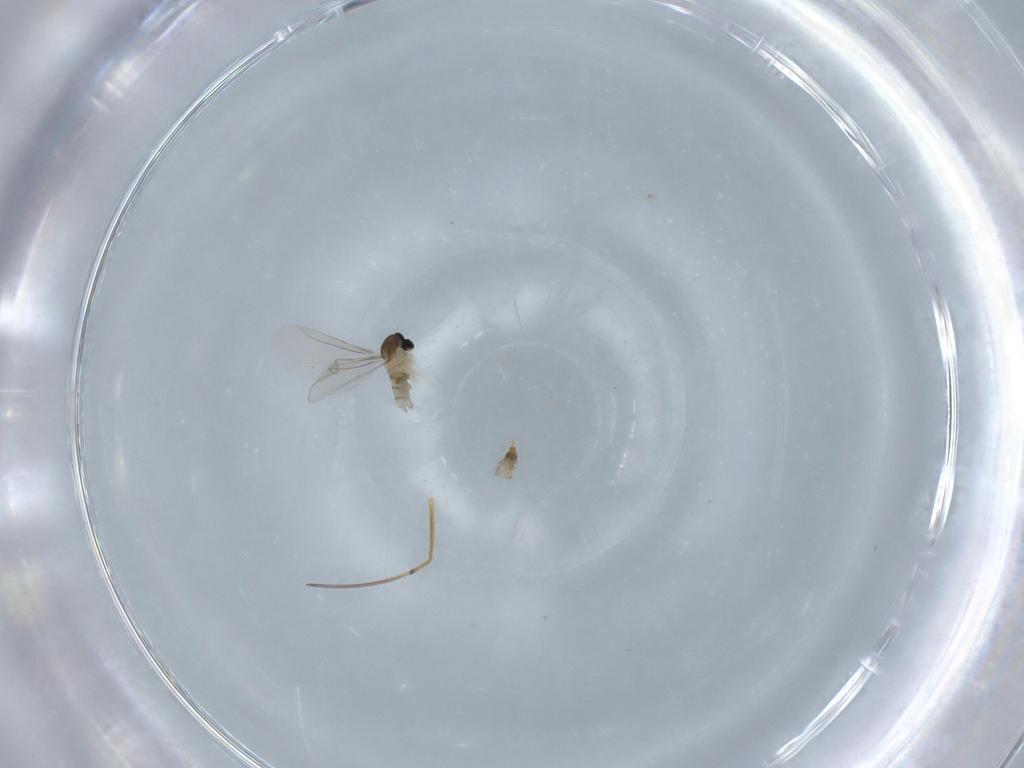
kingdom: Animalia
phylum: Arthropoda
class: Insecta
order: Diptera
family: Cecidomyiidae
